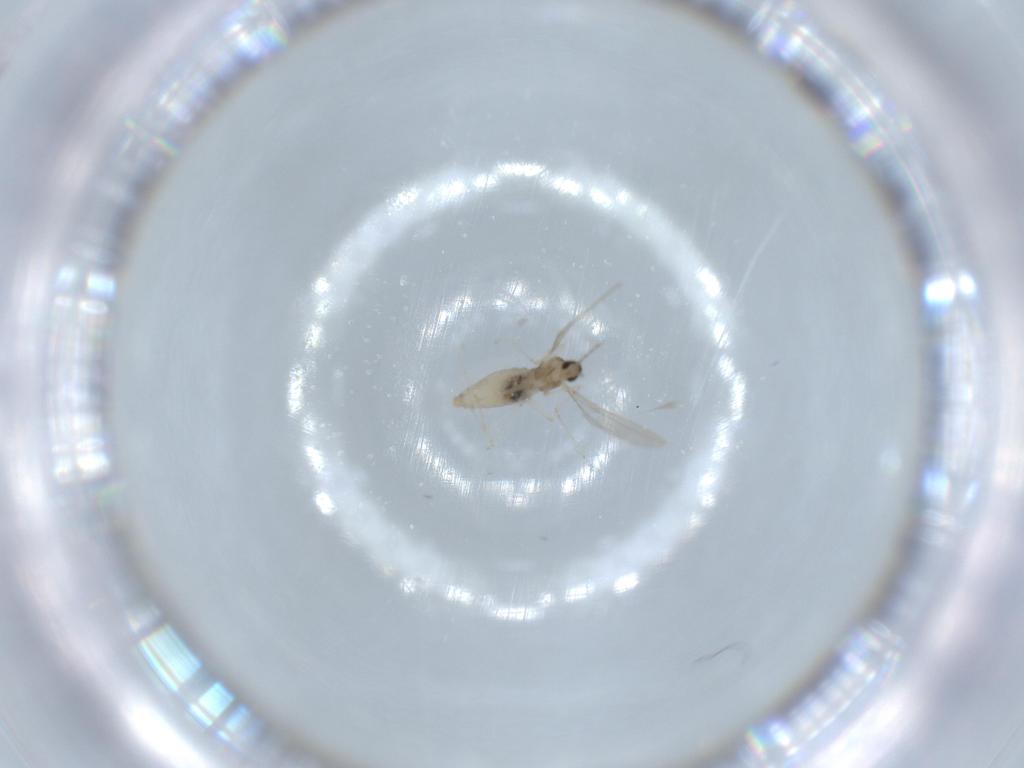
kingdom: Animalia
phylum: Arthropoda
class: Insecta
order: Diptera
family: Cecidomyiidae
